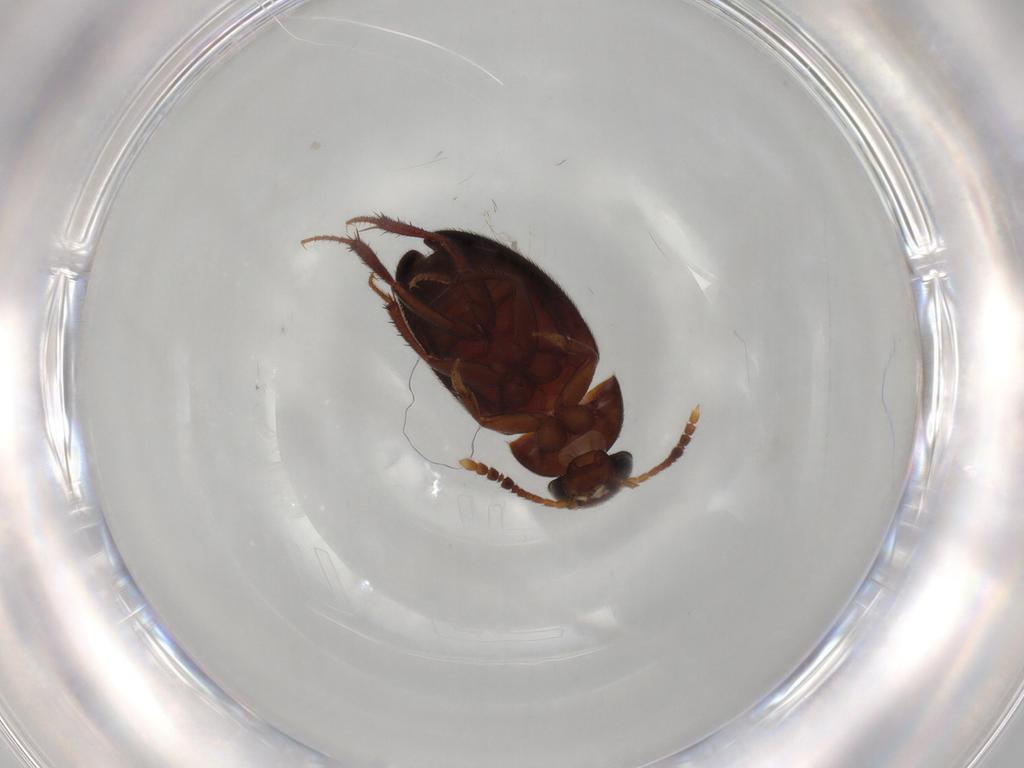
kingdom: Animalia
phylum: Arthropoda
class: Insecta
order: Coleoptera
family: Leiodidae
